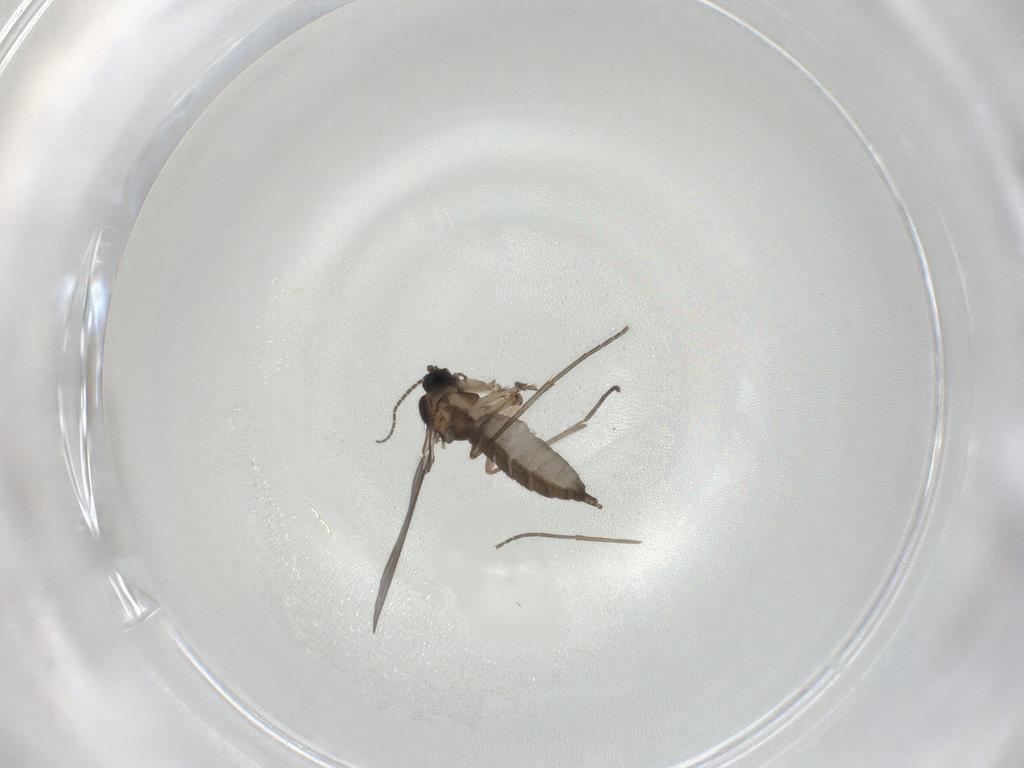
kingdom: Animalia
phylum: Arthropoda
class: Insecta
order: Diptera
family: Sciaridae
